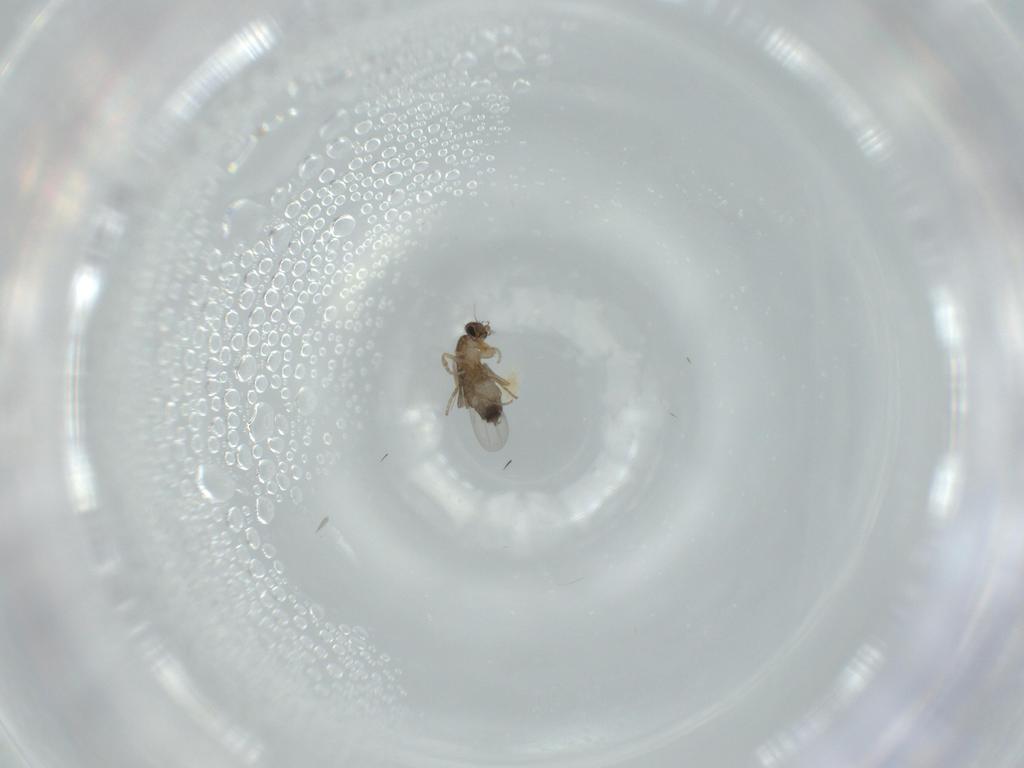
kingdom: Animalia
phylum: Arthropoda
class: Insecta
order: Diptera
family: Phoridae
